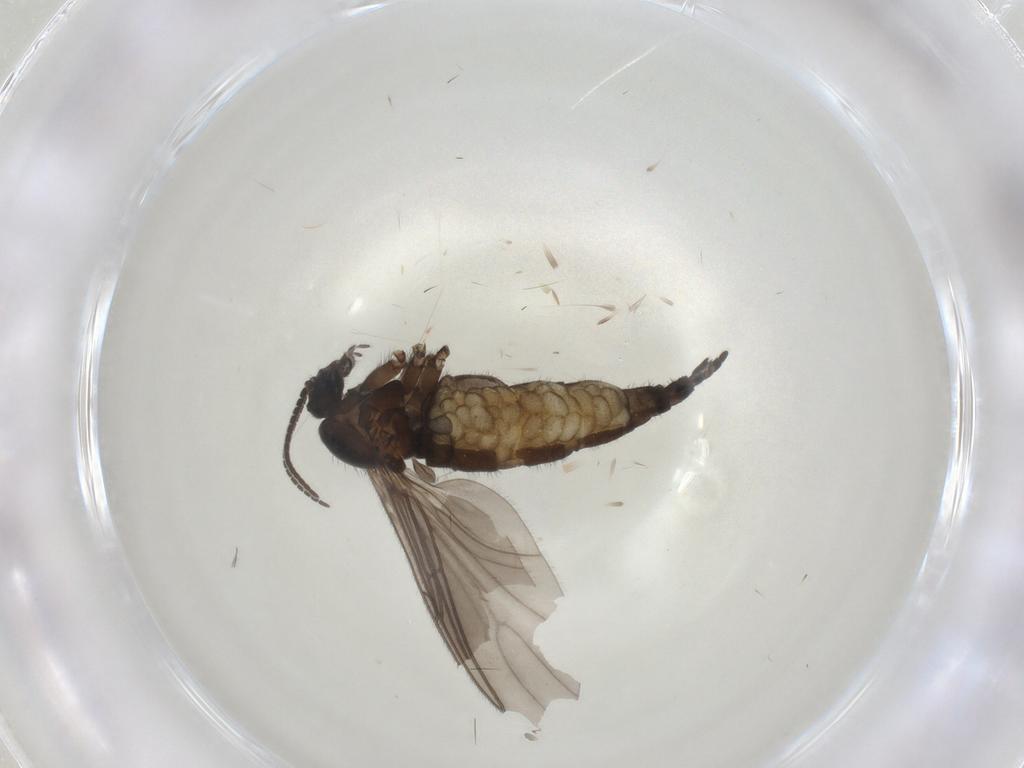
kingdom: Animalia
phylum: Arthropoda
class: Insecta
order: Diptera
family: Sciaridae
